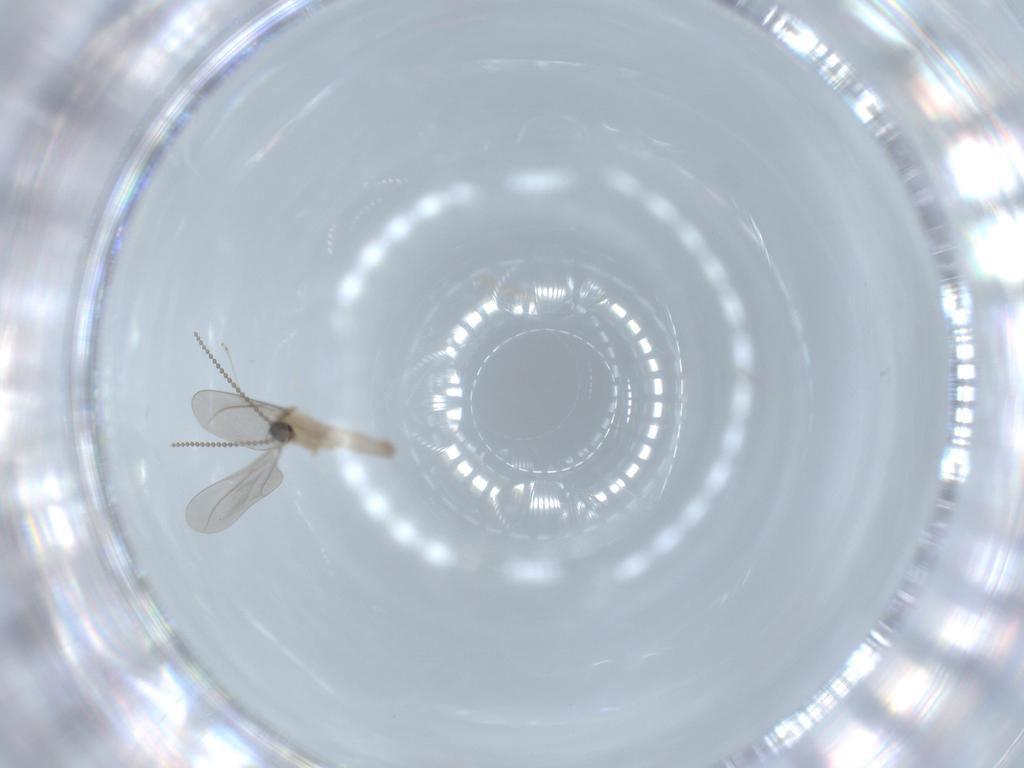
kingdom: Animalia
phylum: Arthropoda
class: Insecta
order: Diptera
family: Cecidomyiidae
